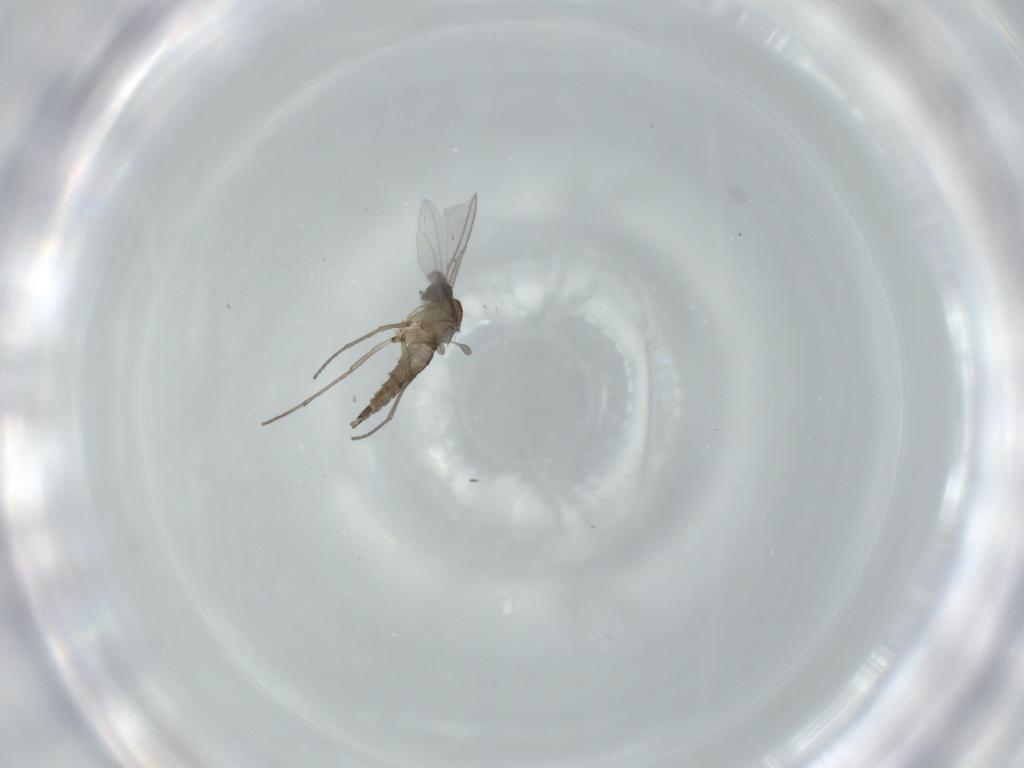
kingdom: Animalia
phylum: Arthropoda
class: Insecta
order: Diptera
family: Sciaridae
